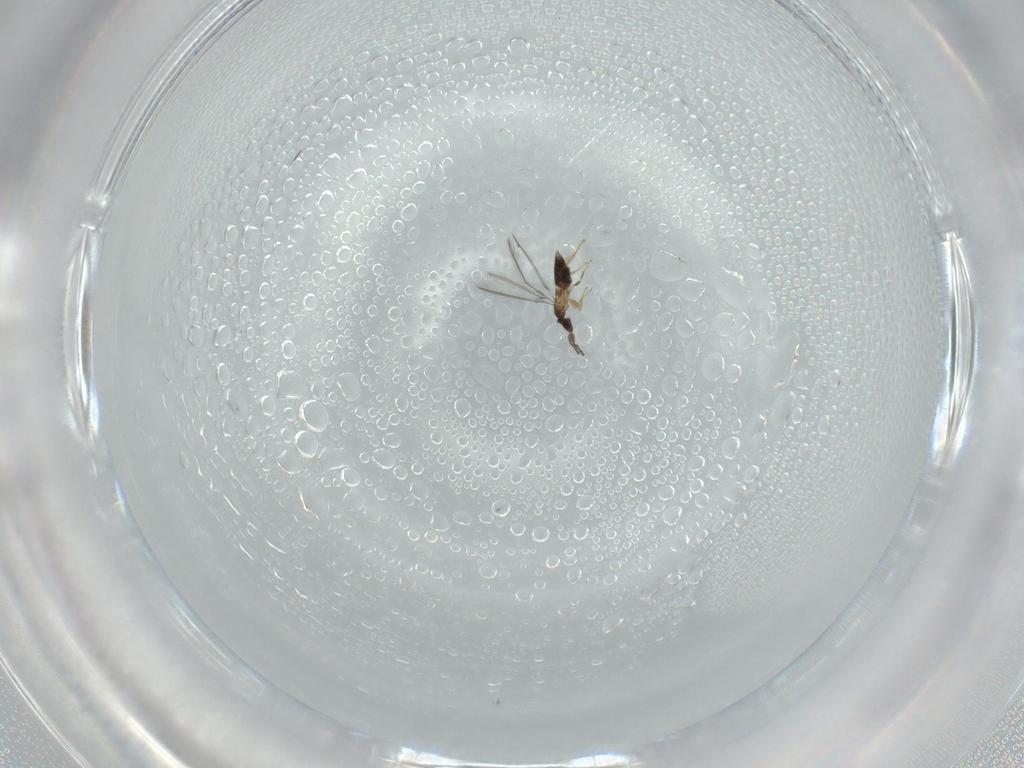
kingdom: Animalia
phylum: Arthropoda
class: Insecta
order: Hymenoptera
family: Mymaridae
